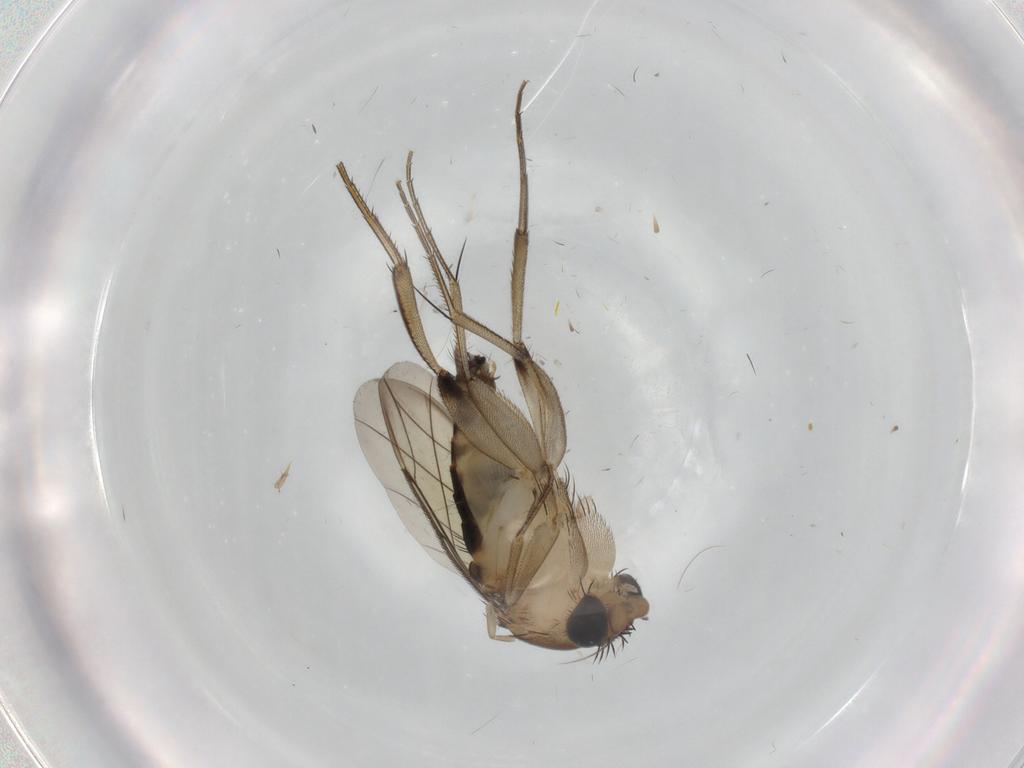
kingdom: Animalia
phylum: Arthropoda
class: Insecta
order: Diptera
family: Phoridae
